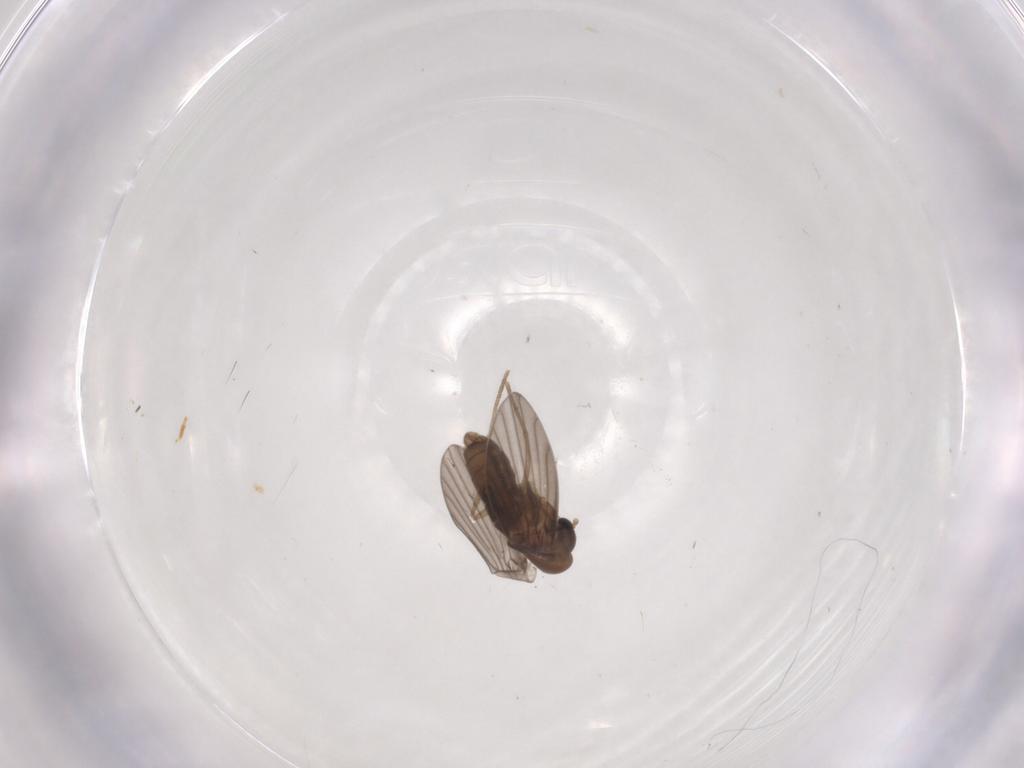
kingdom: Animalia
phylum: Arthropoda
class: Insecta
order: Diptera
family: Psychodidae
